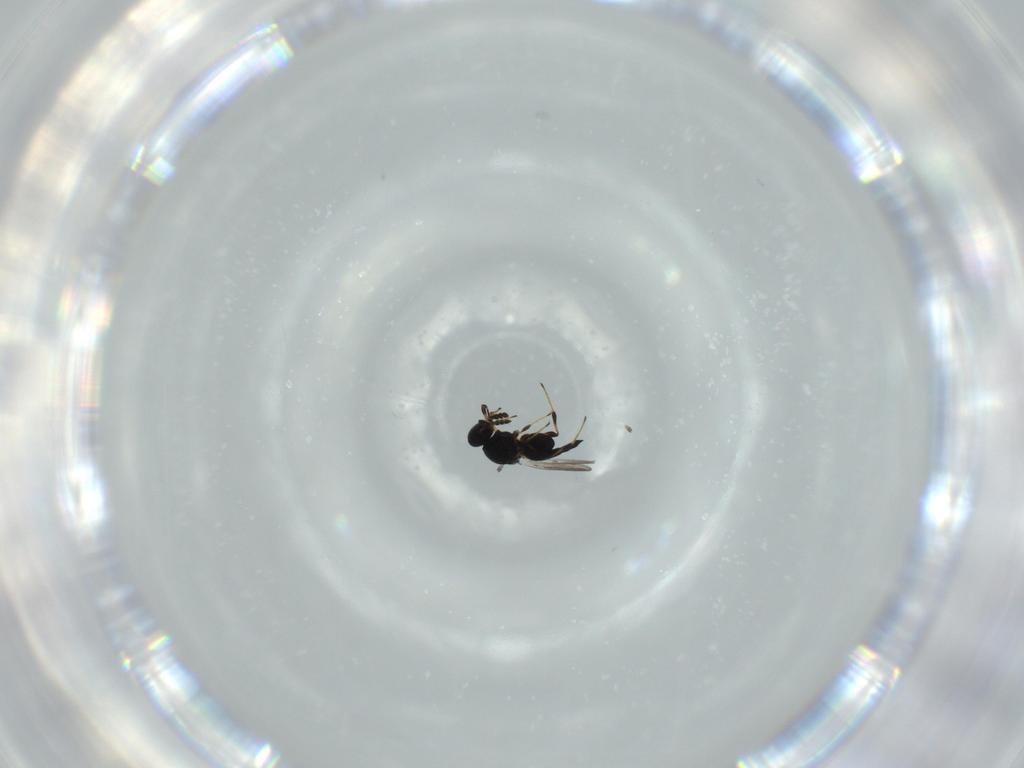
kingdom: Animalia
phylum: Arthropoda
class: Insecta
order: Hymenoptera
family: Platygastridae
